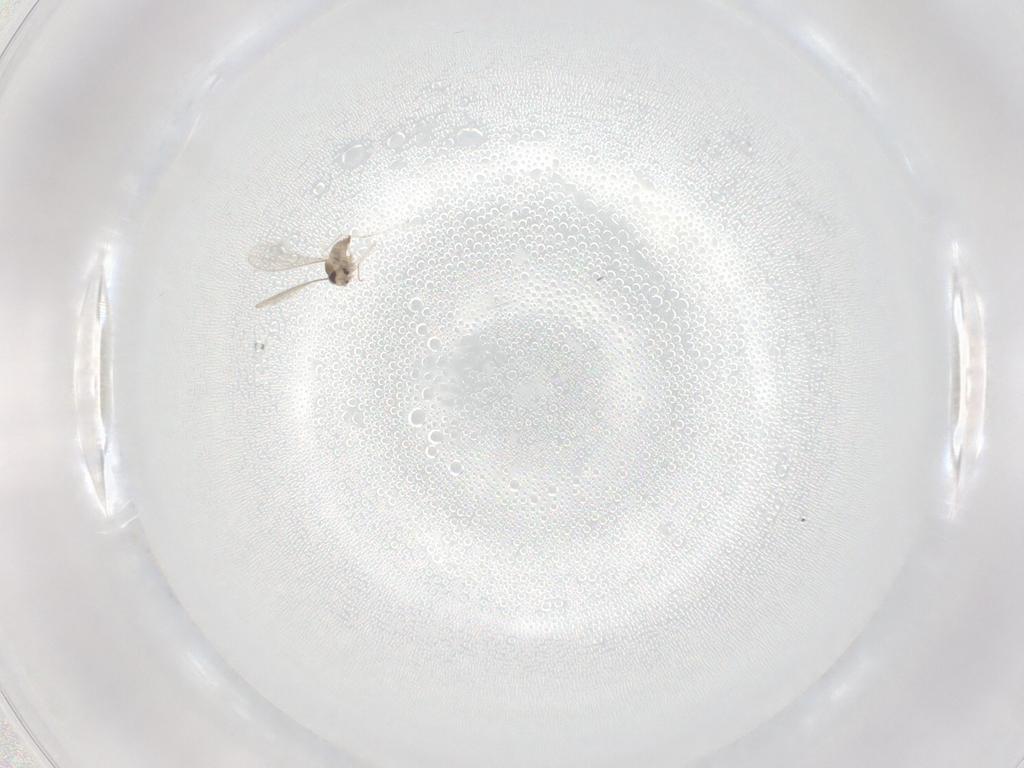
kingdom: Animalia
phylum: Arthropoda
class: Insecta
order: Diptera
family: Cecidomyiidae
